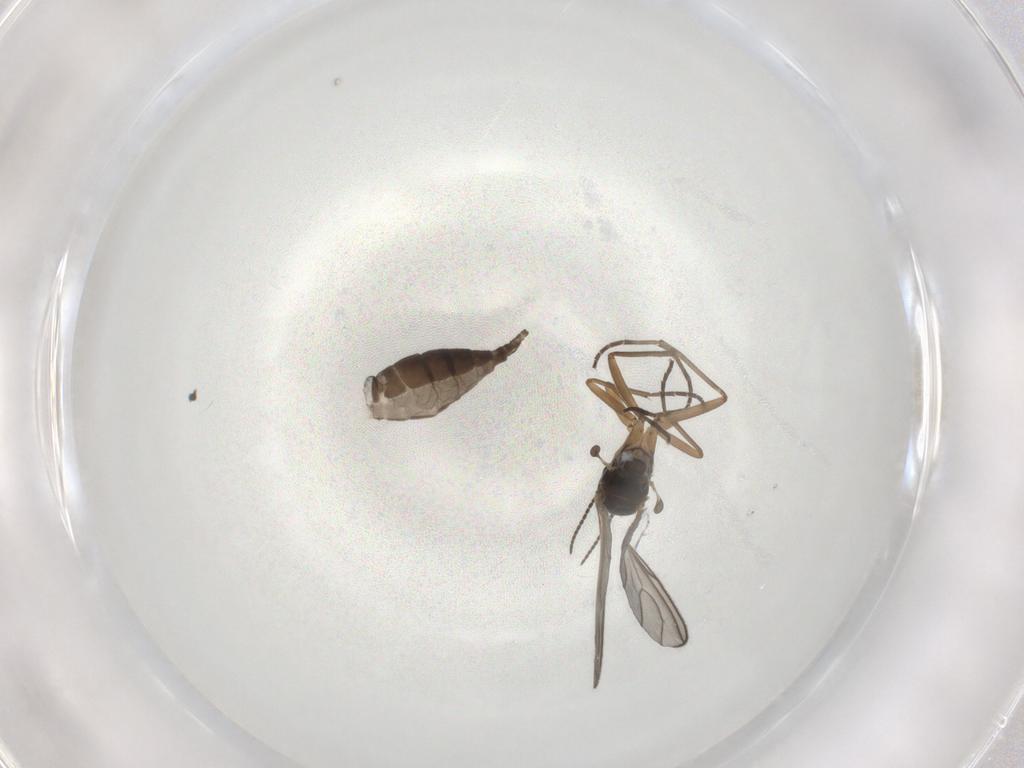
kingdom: Animalia
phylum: Arthropoda
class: Insecta
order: Diptera
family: Sciaridae
